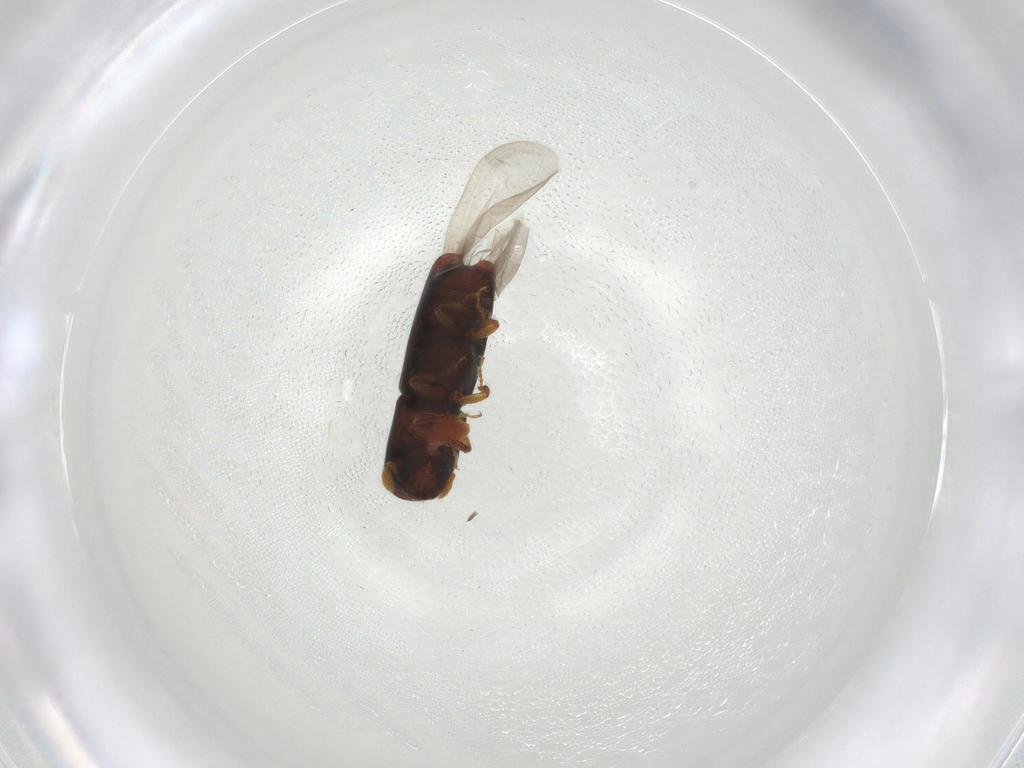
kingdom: Animalia
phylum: Arthropoda
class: Insecta
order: Coleoptera
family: Curculionidae
